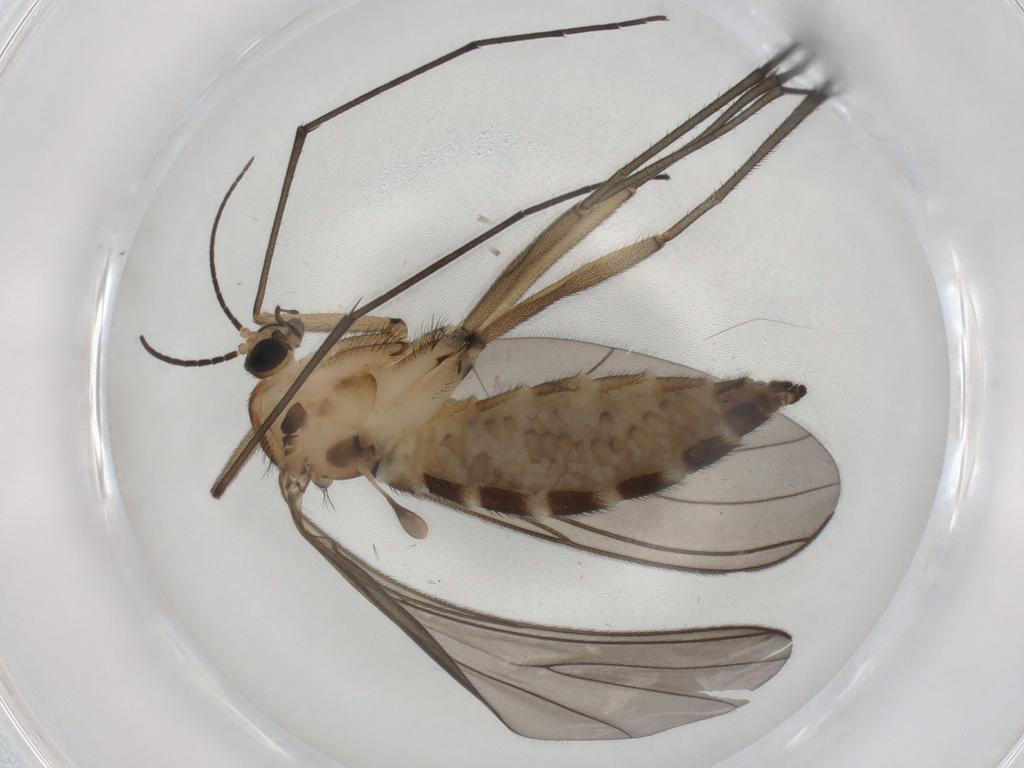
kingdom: Animalia
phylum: Arthropoda
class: Insecta
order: Diptera
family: Sciaridae
